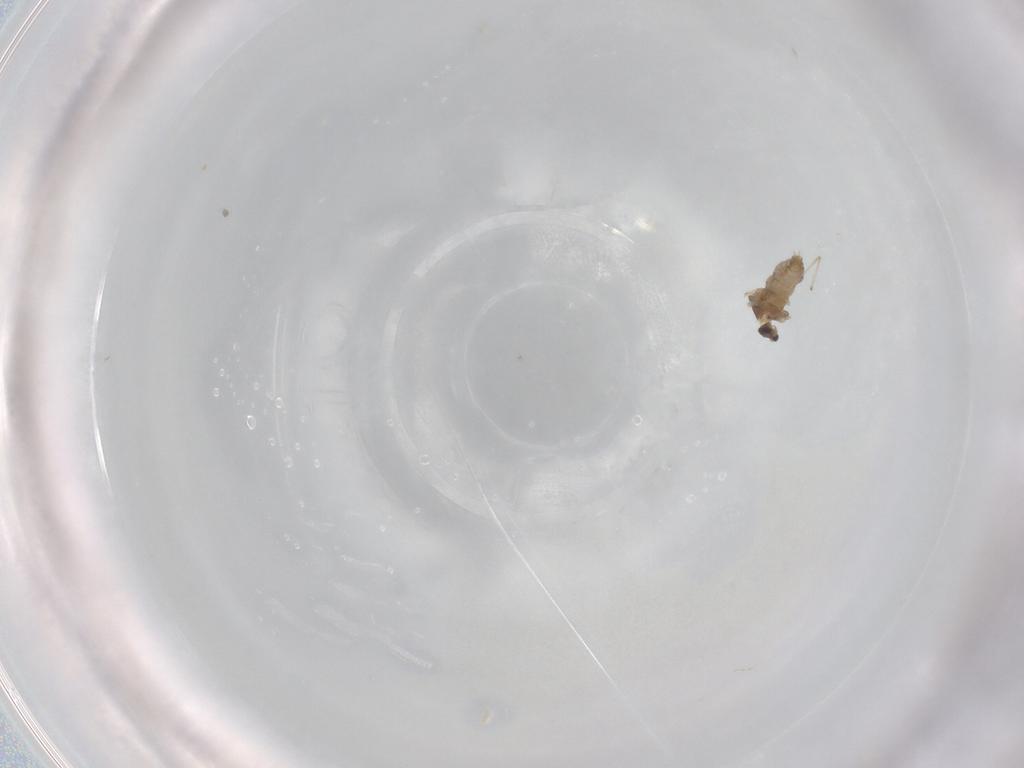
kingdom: Animalia
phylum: Arthropoda
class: Insecta
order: Diptera
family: Cecidomyiidae
